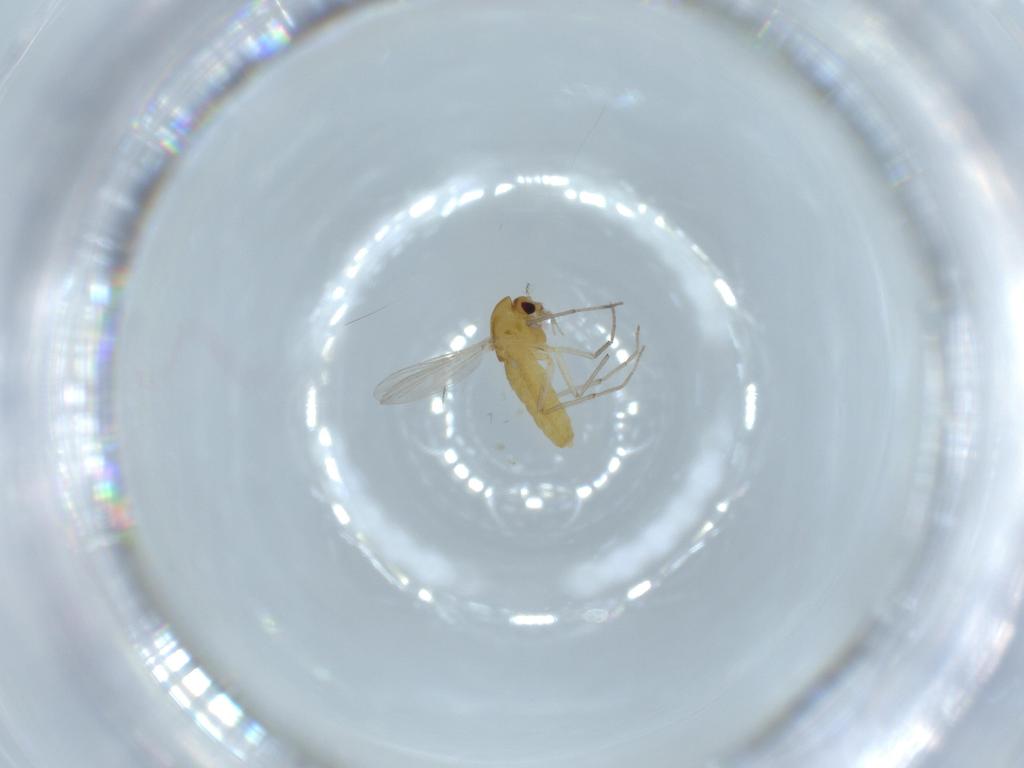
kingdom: Animalia
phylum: Arthropoda
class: Insecta
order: Diptera
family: Chironomidae
